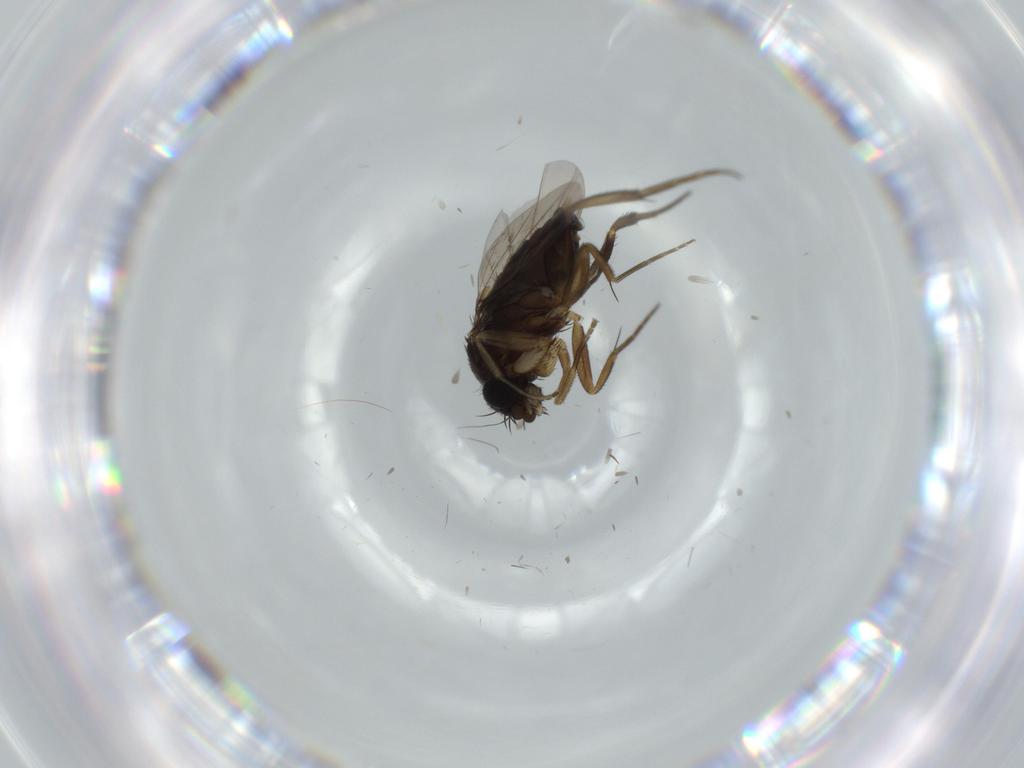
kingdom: Animalia
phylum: Arthropoda
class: Insecta
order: Diptera
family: Phoridae
